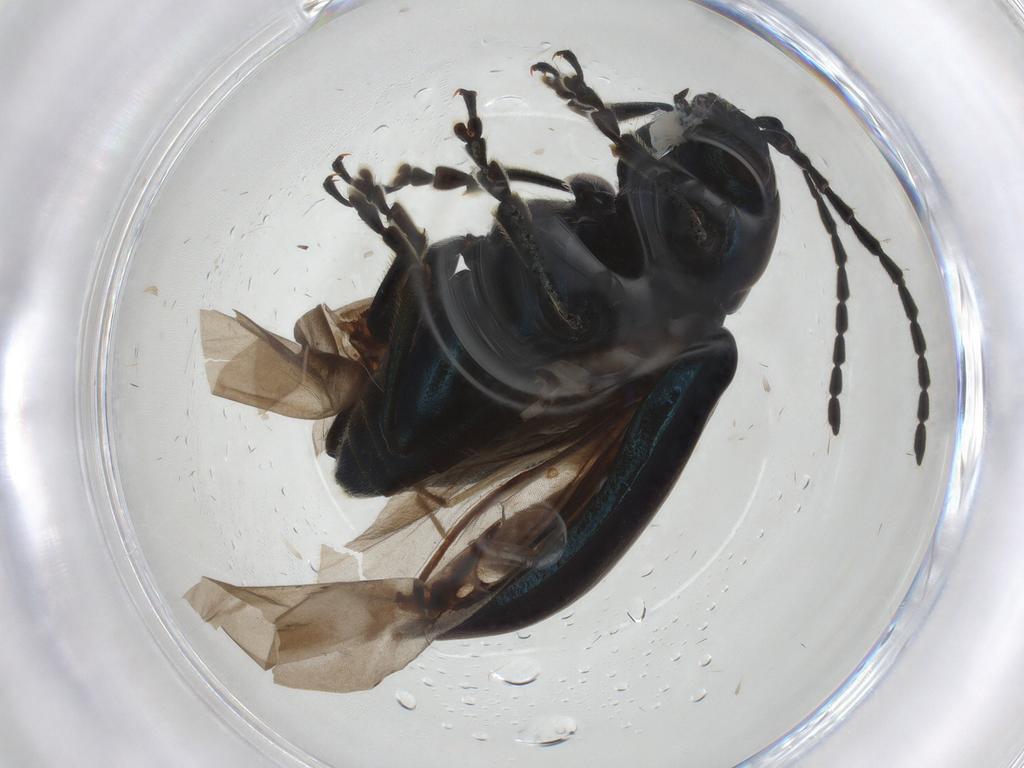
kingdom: Animalia
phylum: Arthropoda
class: Insecta
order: Coleoptera
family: Chrysomelidae
